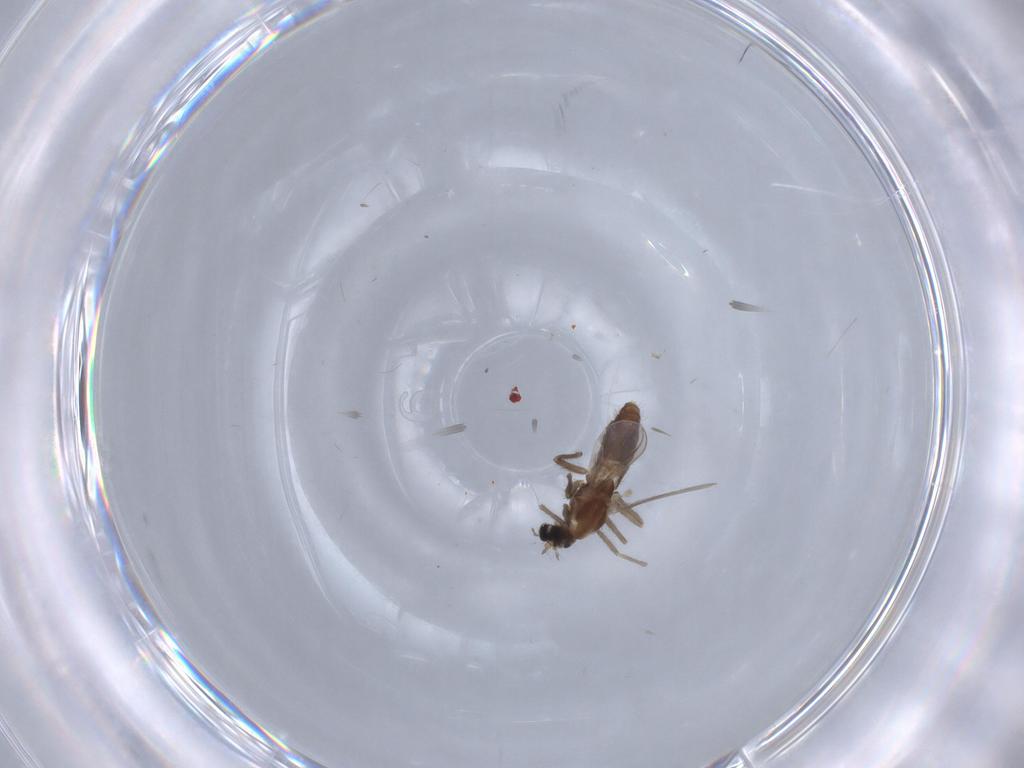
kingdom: Animalia
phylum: Arthropoda
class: Insecta
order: Diptera
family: Chironomidae
